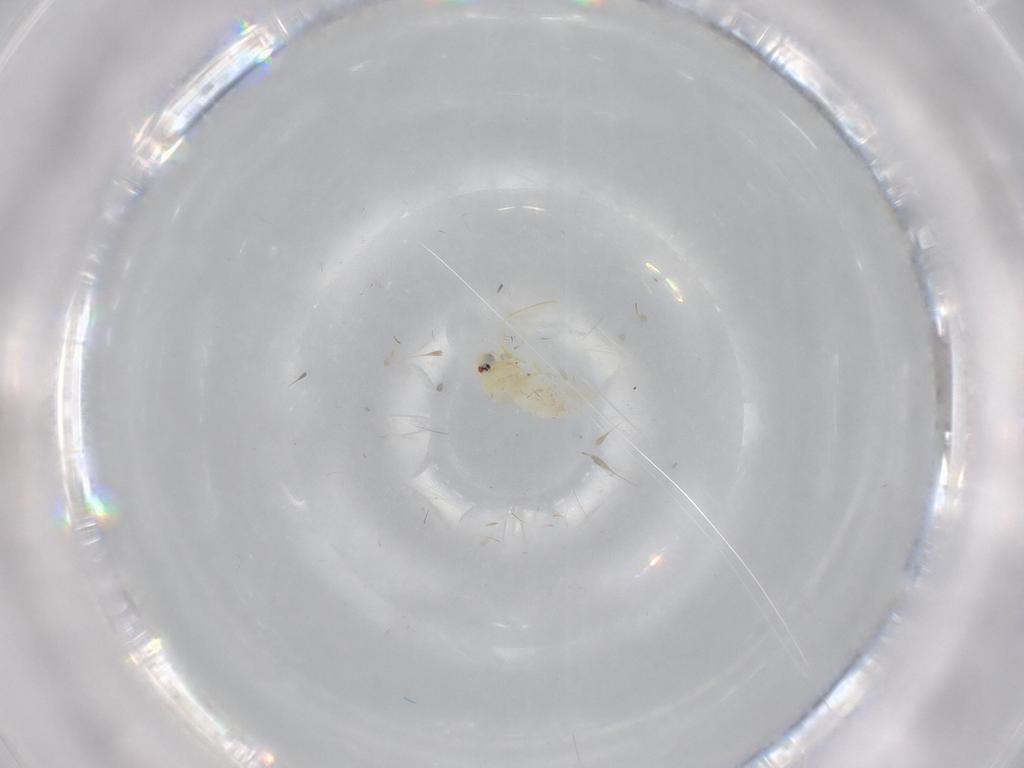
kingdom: Animalia
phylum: Arthropoda
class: Insecta
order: Diptera
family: Dolichopodidae
